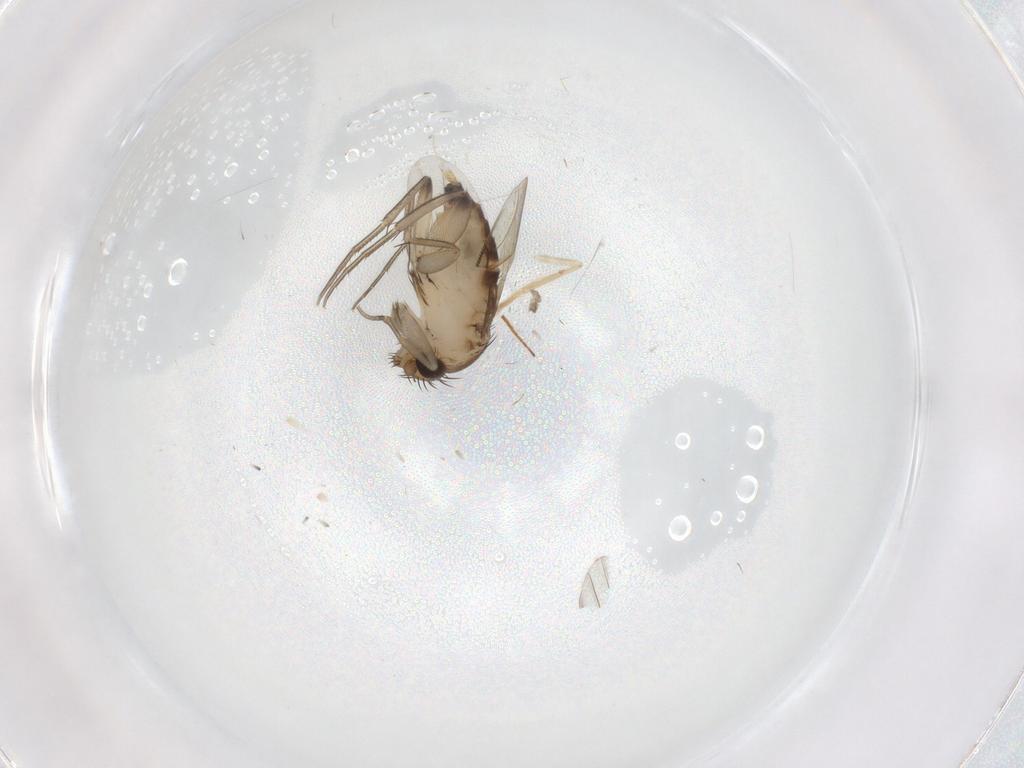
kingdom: Animalia
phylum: Arthropoda
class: Insecta
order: Diptera
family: Psychodidae
